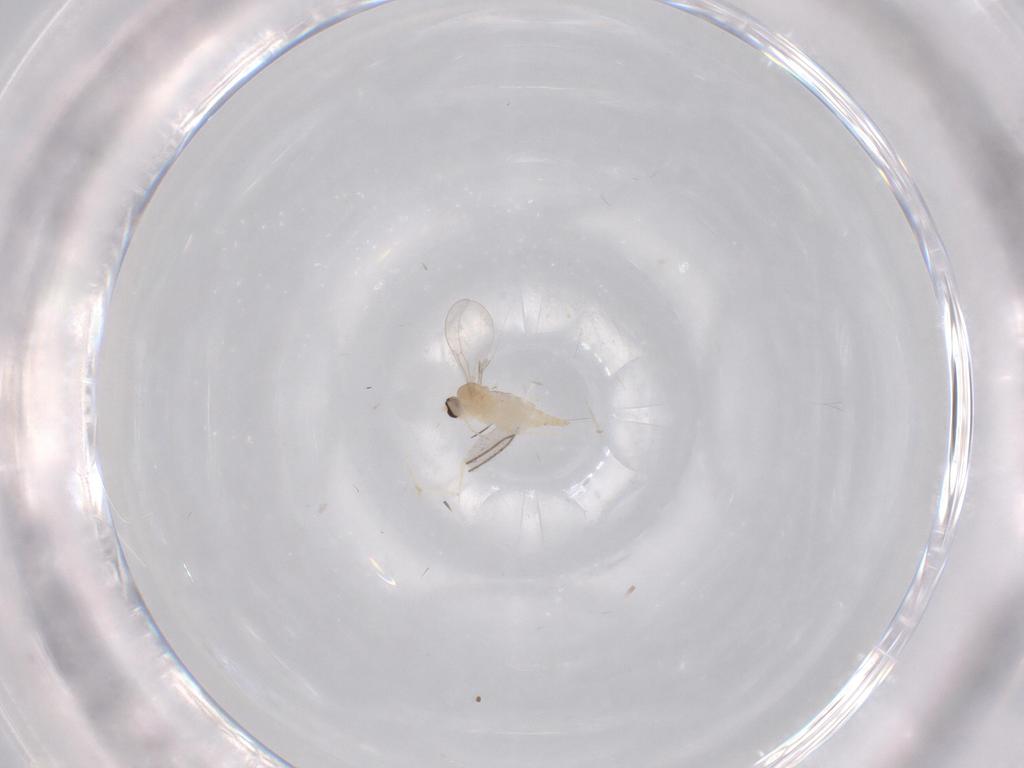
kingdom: Animalia
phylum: Arthropoda
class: Insecta
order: Diptera
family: Cecidomyiidae
